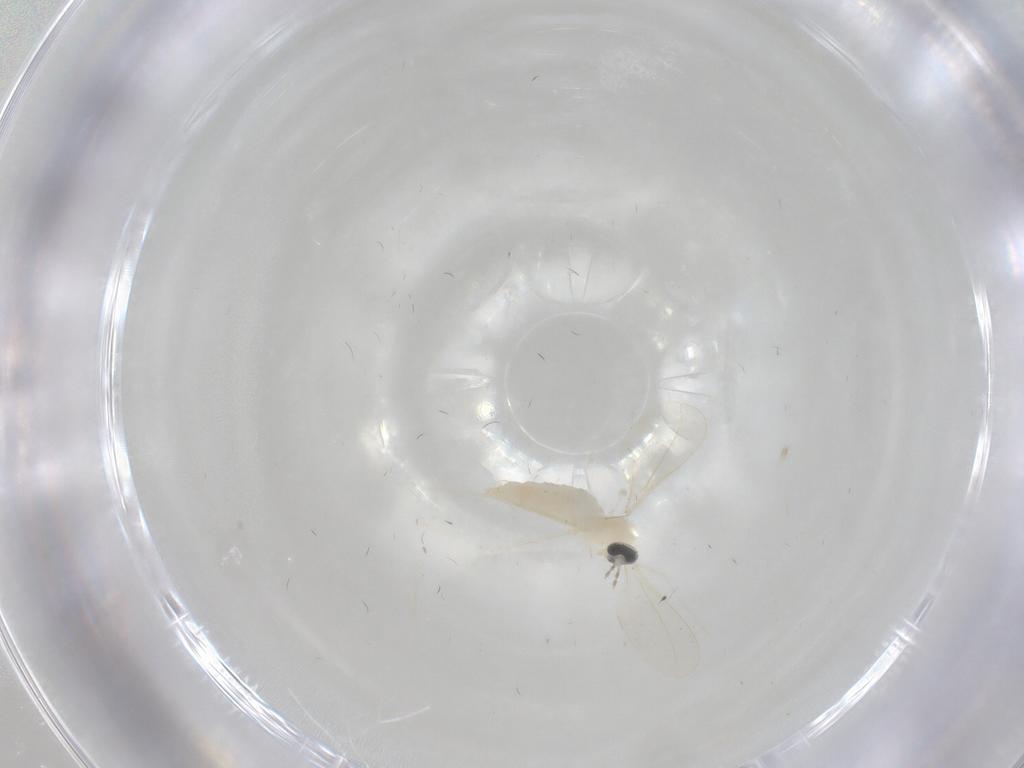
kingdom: Animalia
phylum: Arthropoda
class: Insecta
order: Diptera
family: Cecidomyiidae
